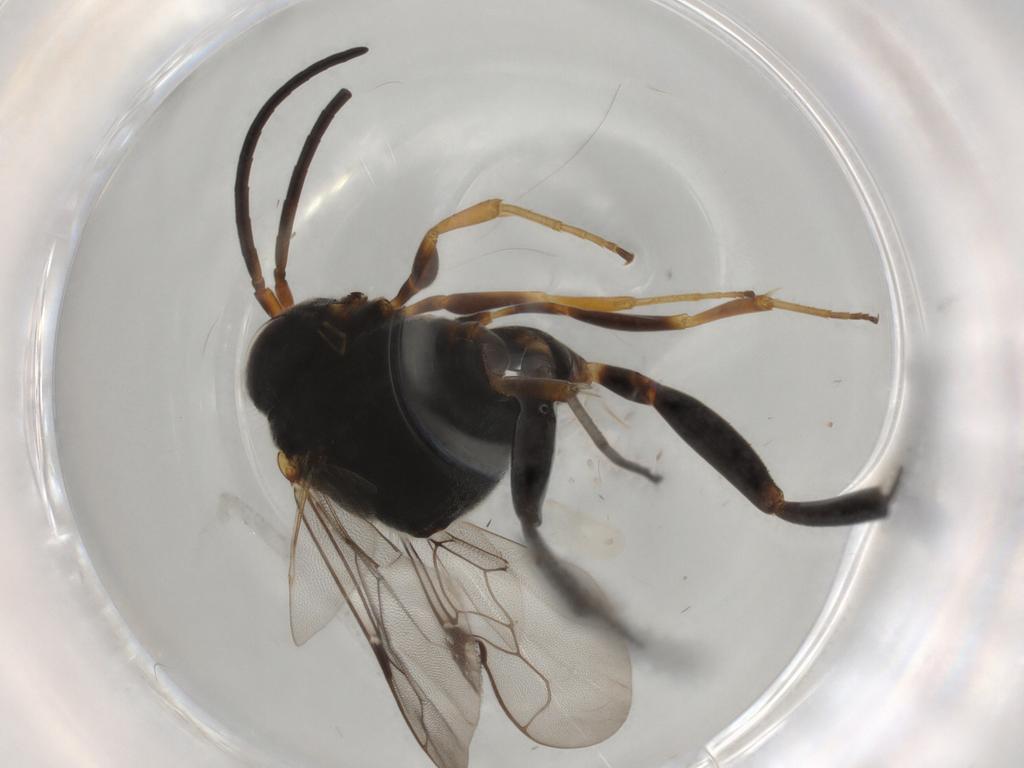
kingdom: Animalia
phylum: Arthropoda
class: Insecta
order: Hymenoptera
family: Evaniidae
